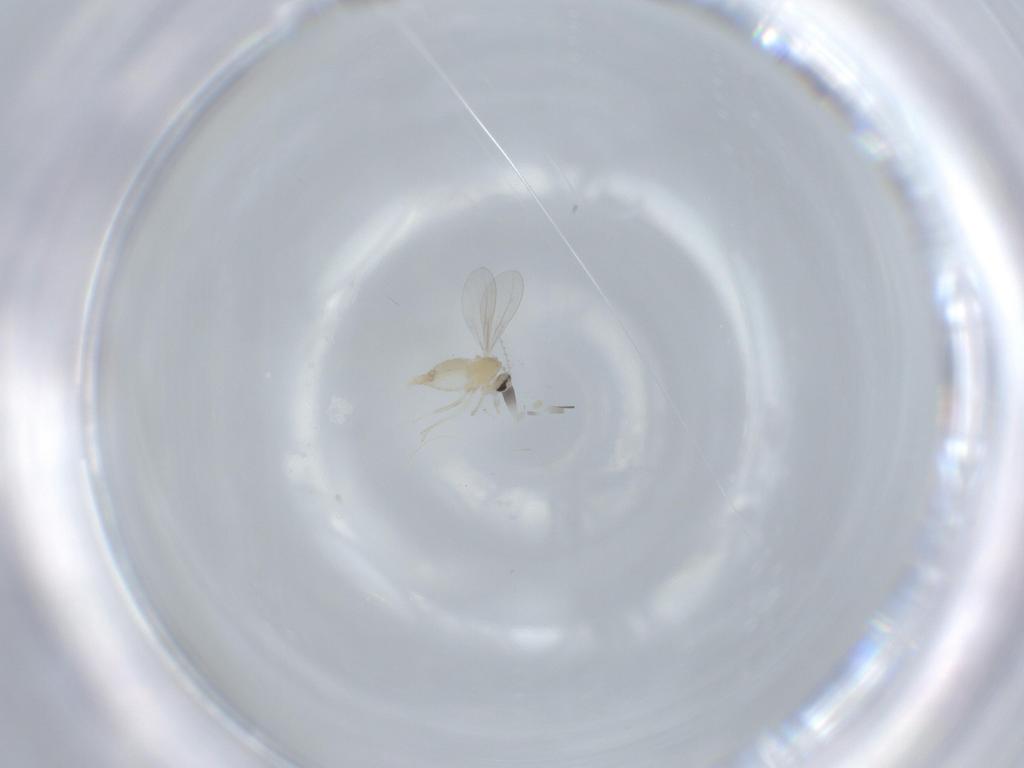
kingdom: Animalia
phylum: Arthropoda
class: Insecta
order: Diptera
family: Cecidomyiidae
